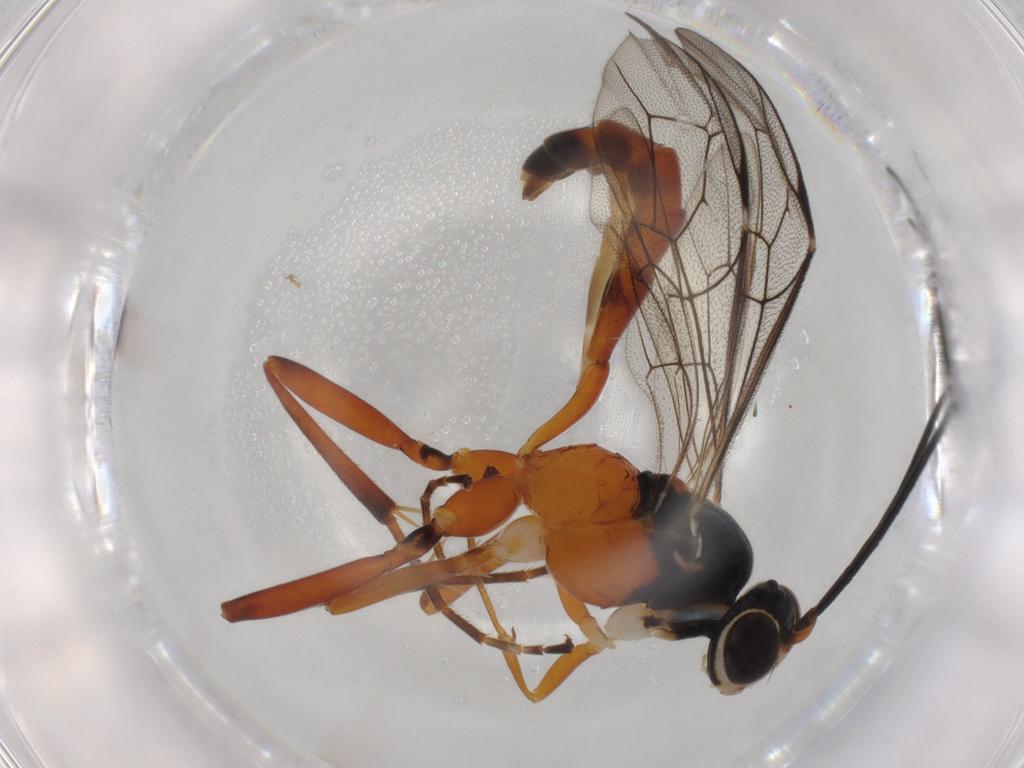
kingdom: Animalia
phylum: Arthropoda
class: Insecta
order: Hymenoptera
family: Ichneumonidae
